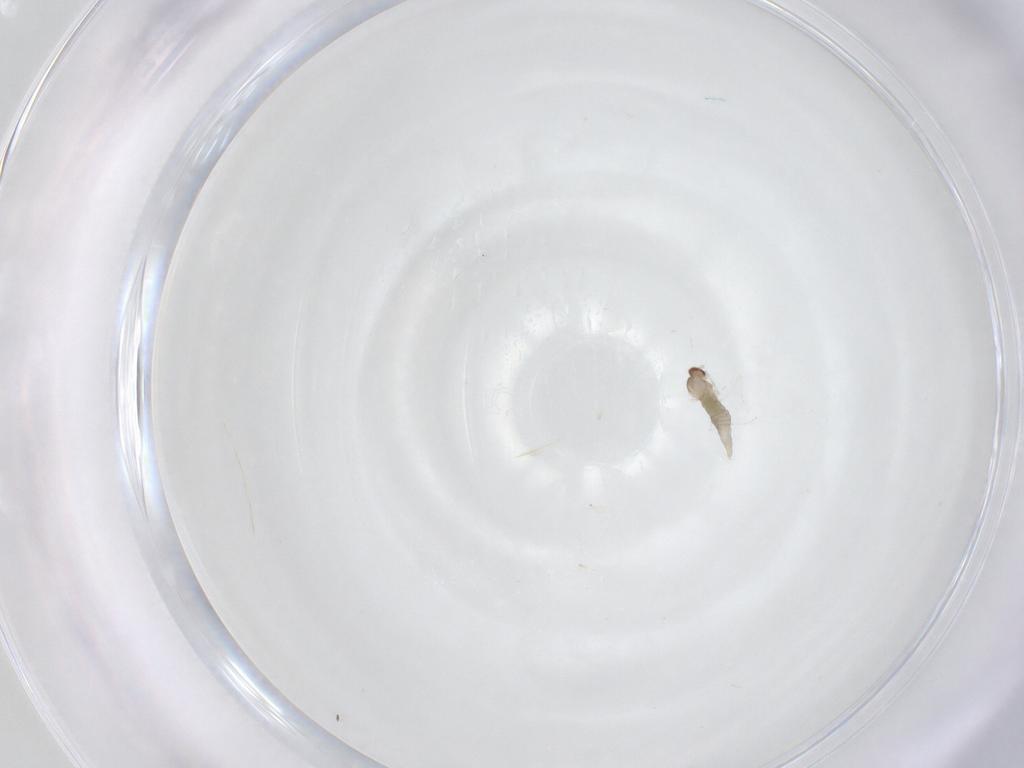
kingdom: Animalia
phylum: Arthropoda
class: Insecta
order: Diptera
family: Cecidomyiidae
